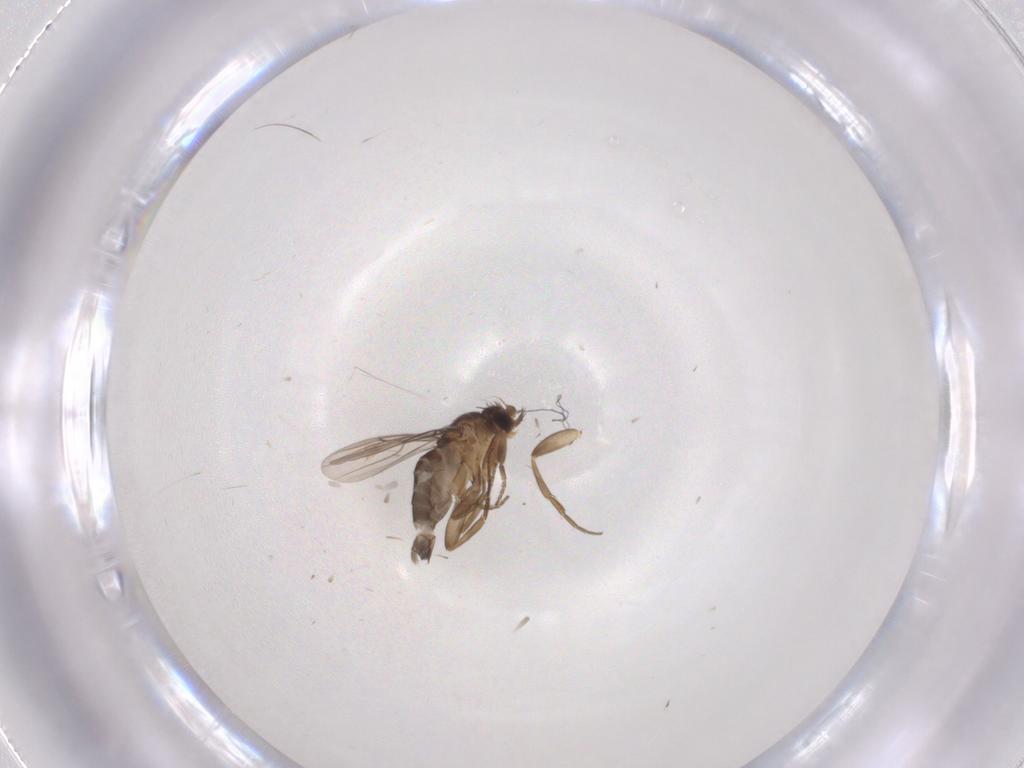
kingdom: Animalia
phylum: Arthropoda
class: Insecta
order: Diptera
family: Phoridae
